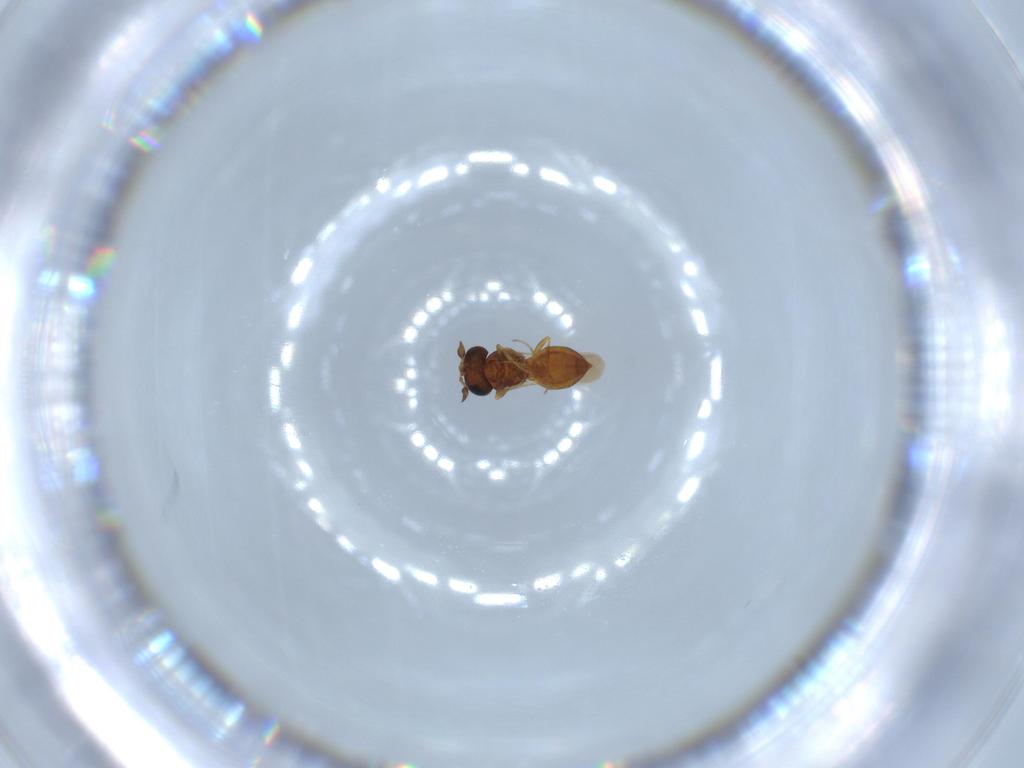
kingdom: Animalia
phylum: Arthropoda
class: Insecta
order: Hymenoptera
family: Scelionidae
